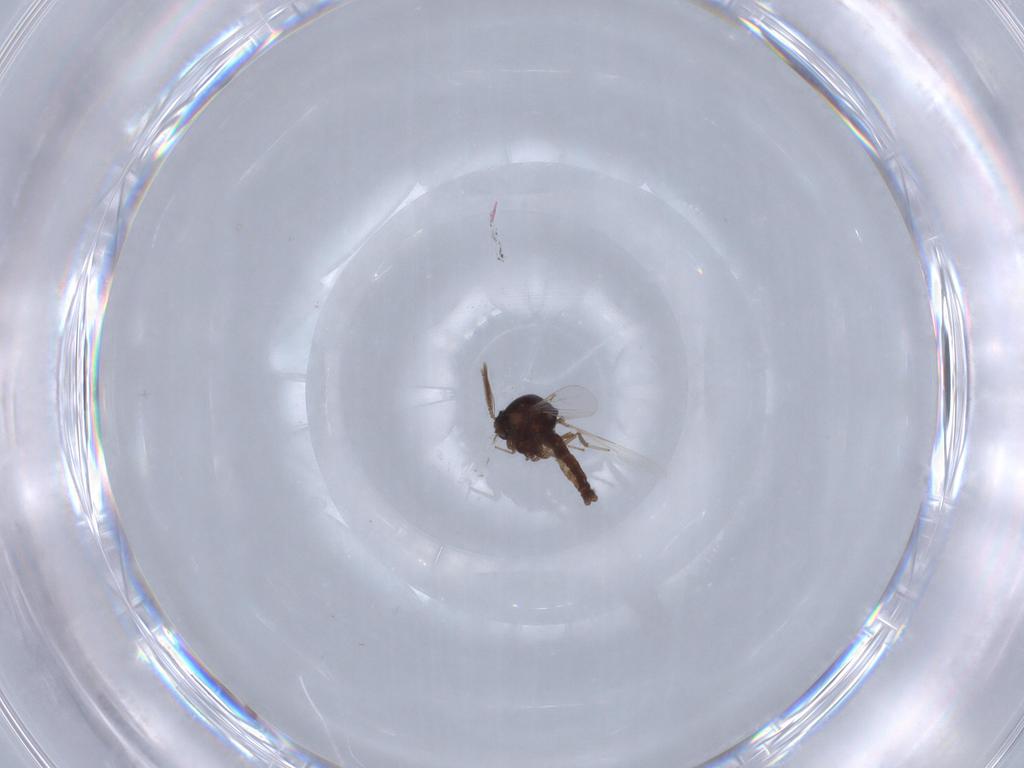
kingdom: Animalia
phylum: Arthropoda
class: Insecta
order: Diptera
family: Ceratopogonidae
